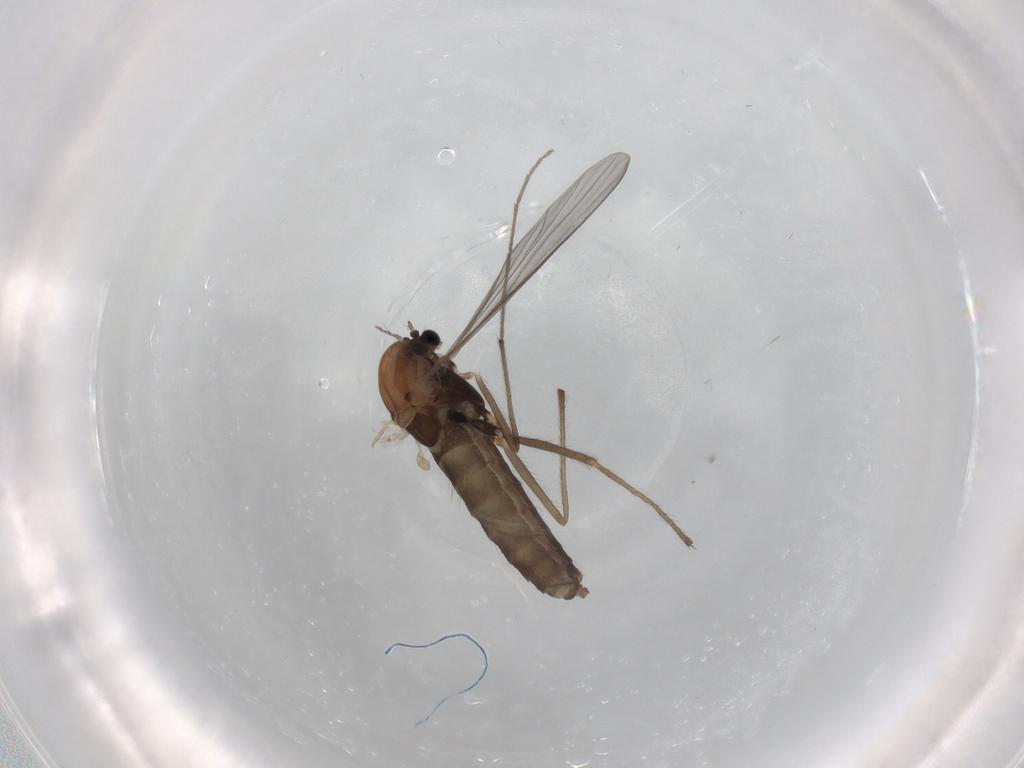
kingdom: Animalia
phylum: Arthropoda
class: Insecta
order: Diptera
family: Chironomidae
